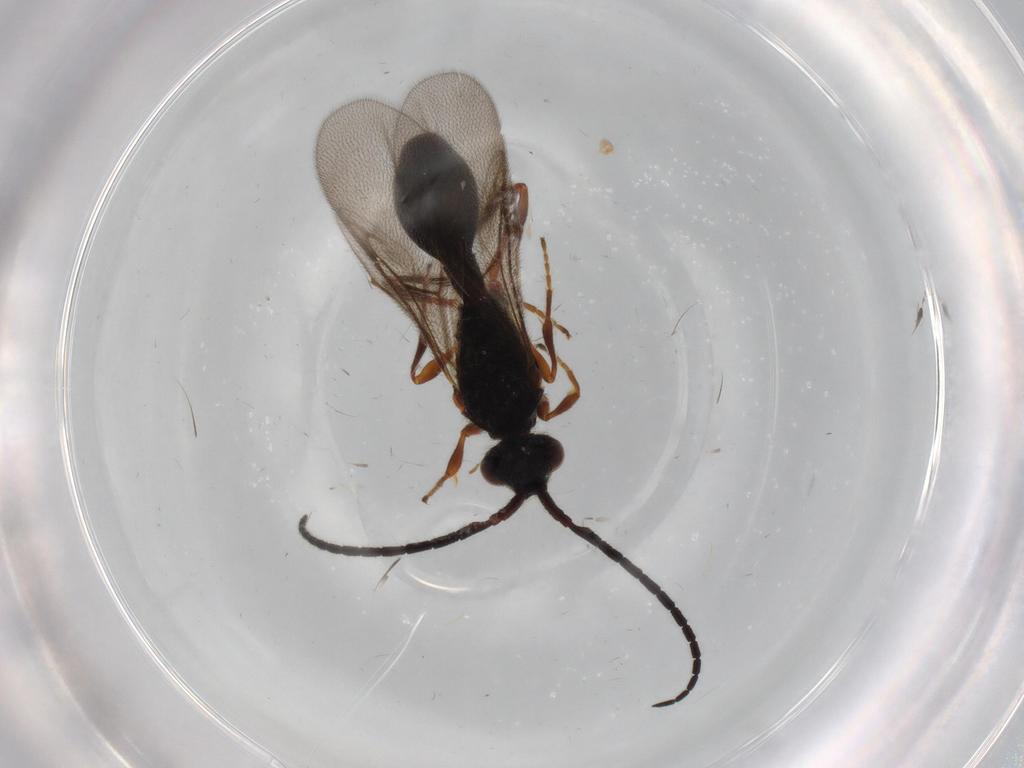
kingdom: Animalia
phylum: Arthropoda
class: Insecta
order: Hymenoptera
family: Diapriidae
